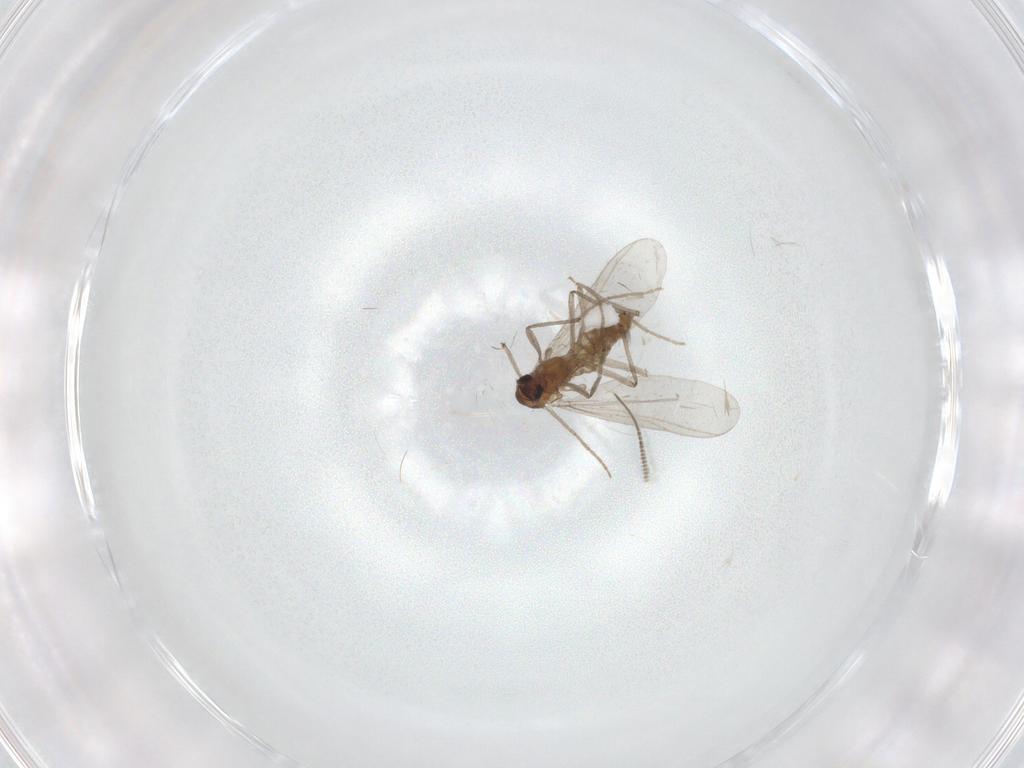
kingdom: Animalia
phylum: Arthropoda
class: Insecta
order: Diptera
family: Chironomidae
